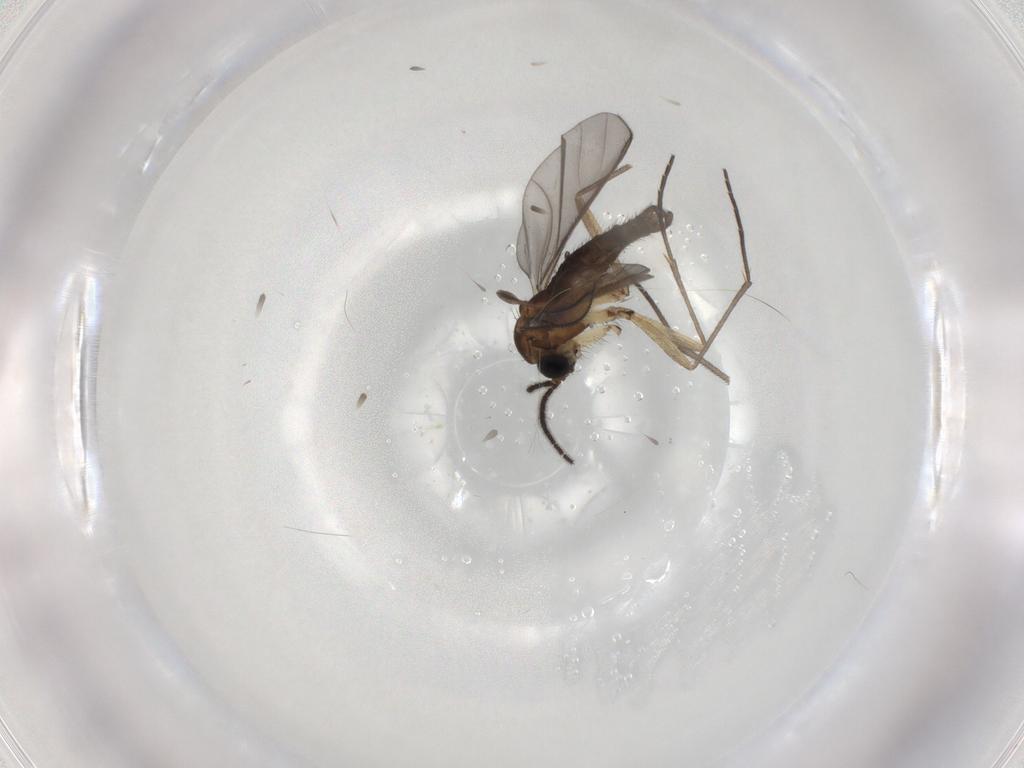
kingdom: Animalia
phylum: Arthropoda
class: Insecta
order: Diptera
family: Sciaridae
